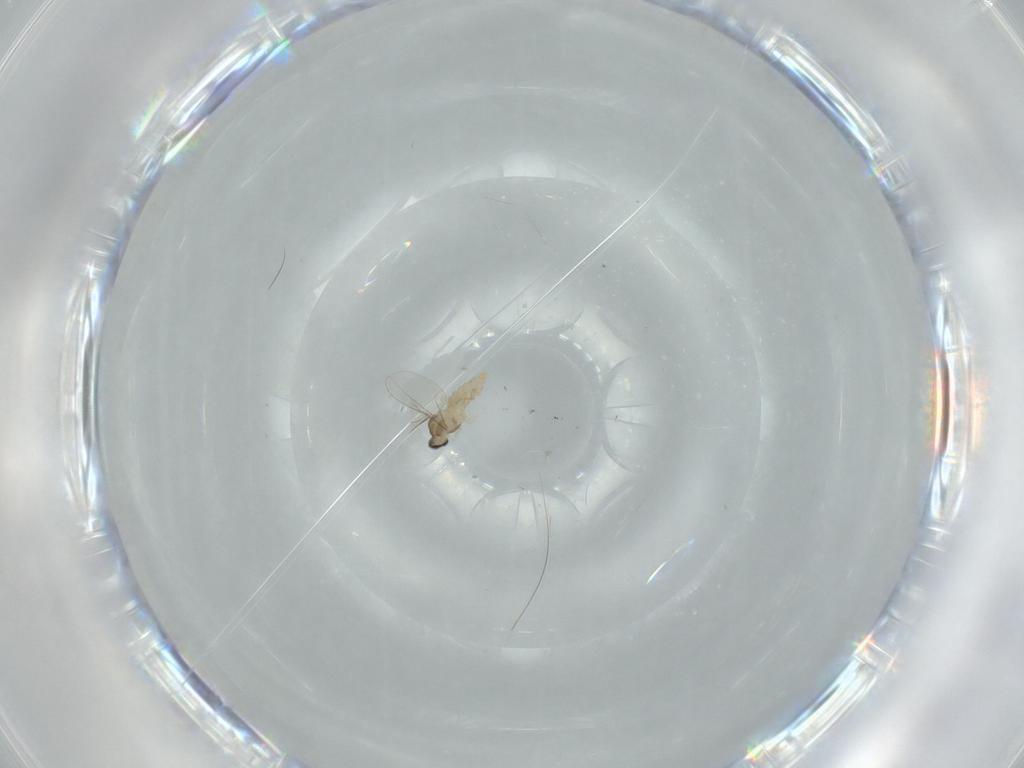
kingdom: Animalia
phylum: Arthropoda
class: Insecta
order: Diptera
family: Cecidomyiidae
